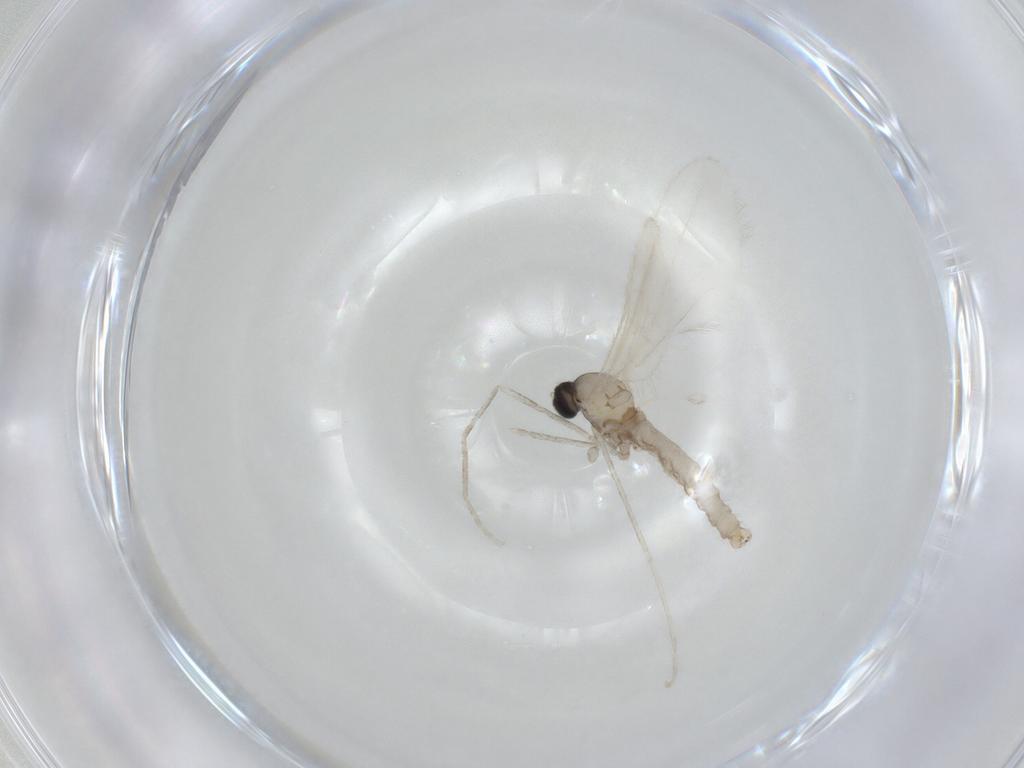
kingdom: Animalia
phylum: Arthropoda
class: Insecta
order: Diptera
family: Cecidomyiidae
